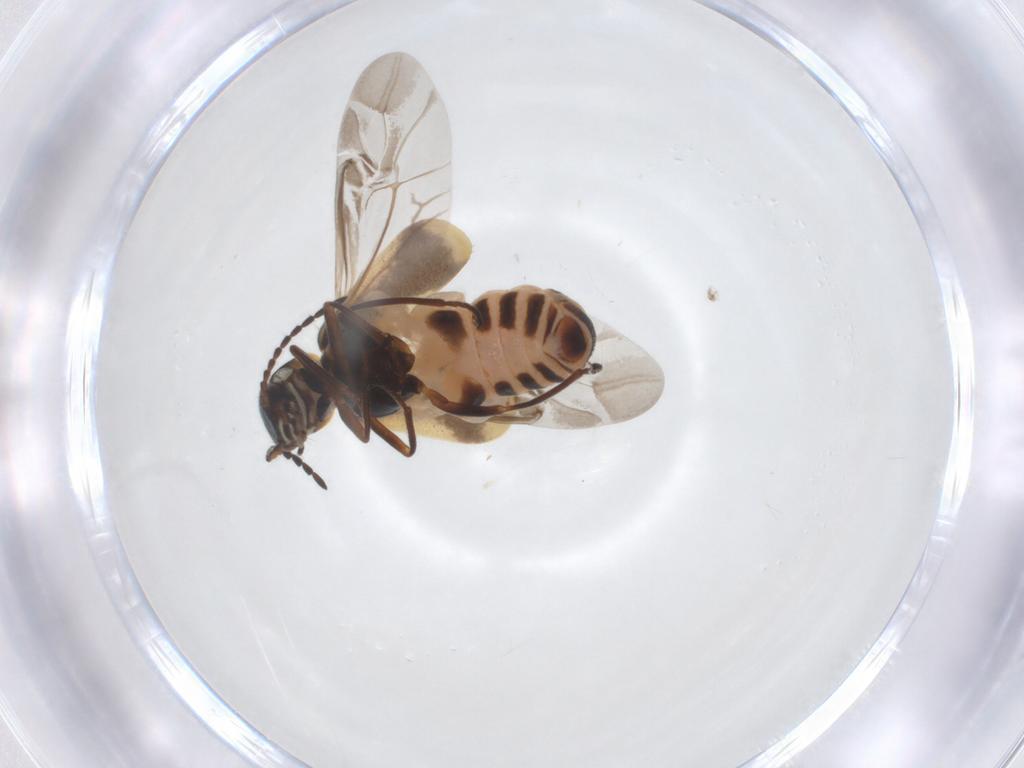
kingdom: Animalia
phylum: Arthropoda
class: Insecta
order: Coleoptera
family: Melyridae
